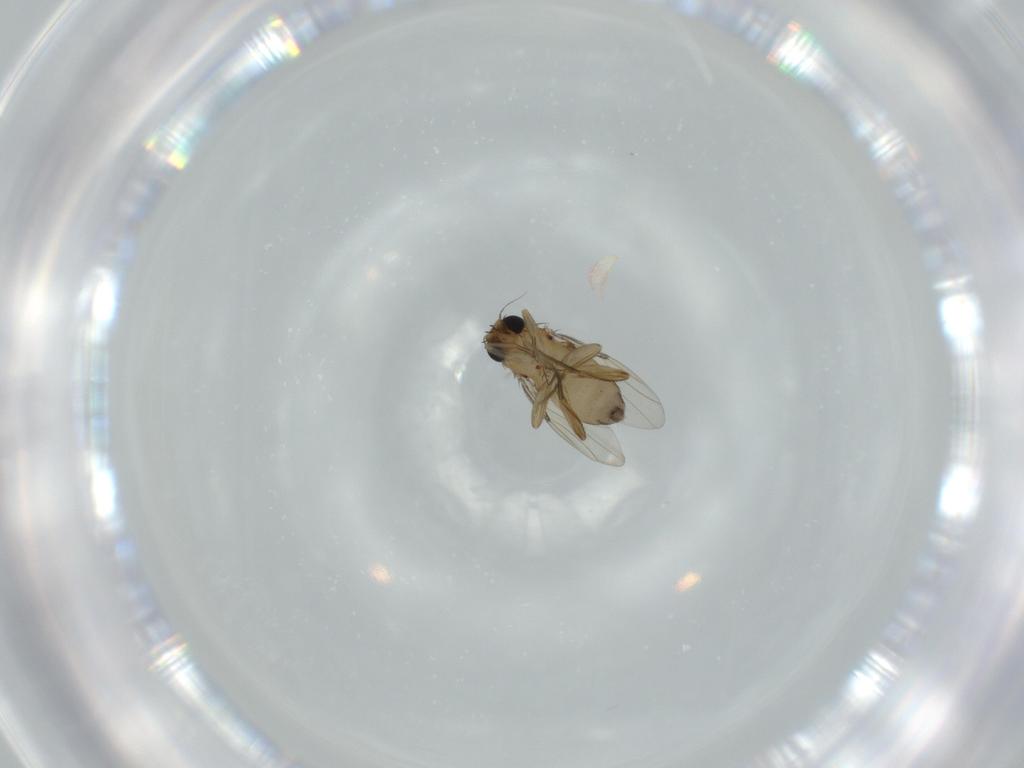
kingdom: Animalia
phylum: Arthropoda
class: Insecta
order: Diptera
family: Phoridae
